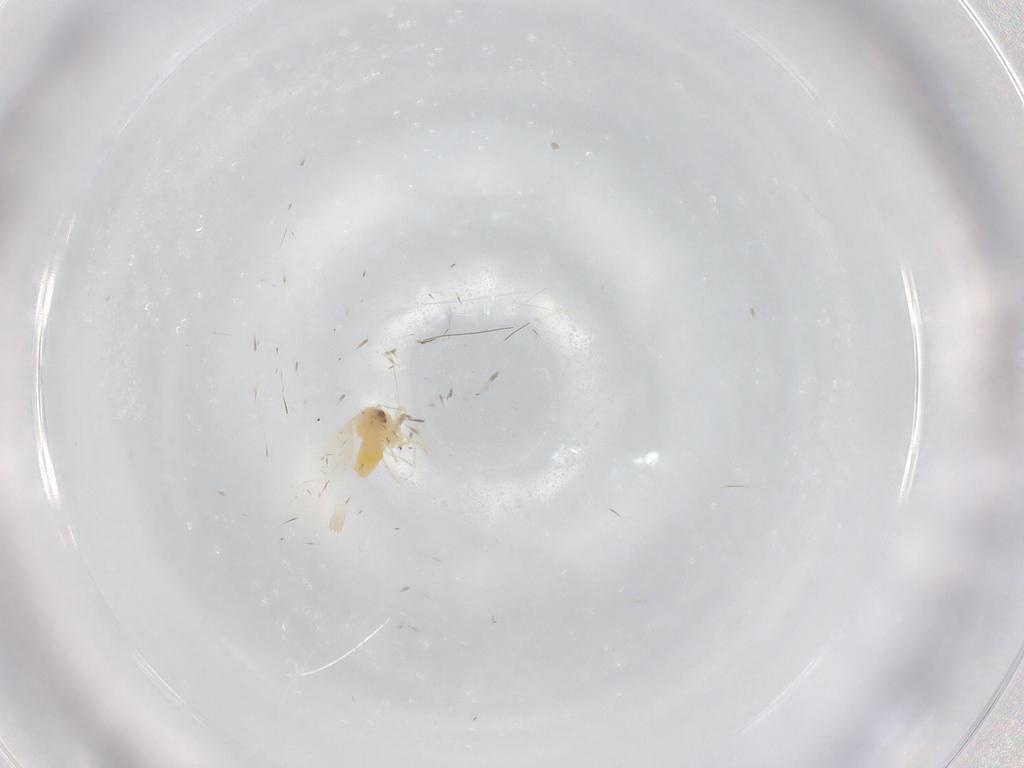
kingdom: Animalia
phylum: Arthropoda
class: Insecta
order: Hemiptera
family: Aleyrodidae
